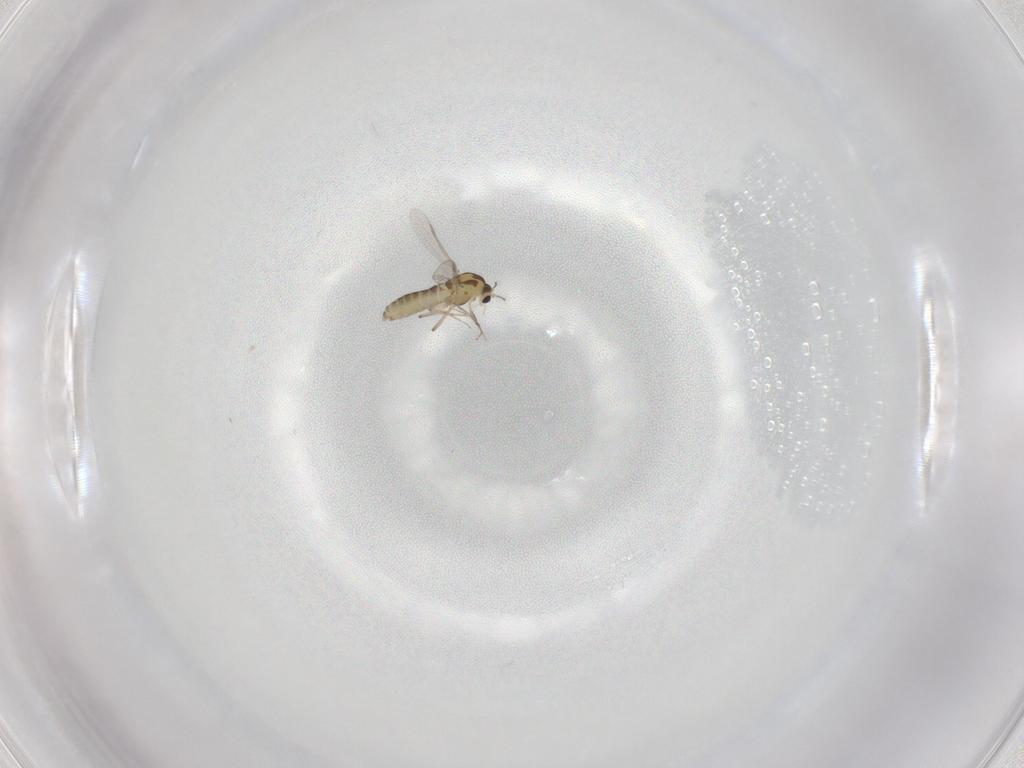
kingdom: Animalia
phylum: Arthropoda
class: Insecta
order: Diptera
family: Chironomidae
